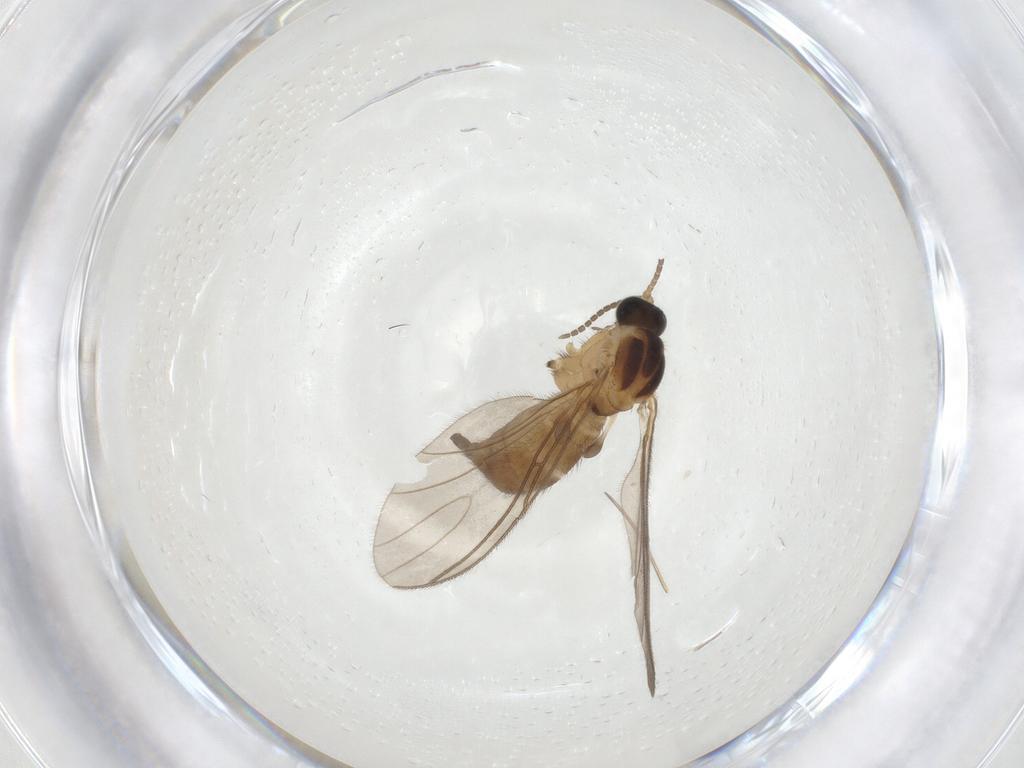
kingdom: Animalia
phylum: Arthropoda
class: Insecta
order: Diptera
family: Sciaridae
